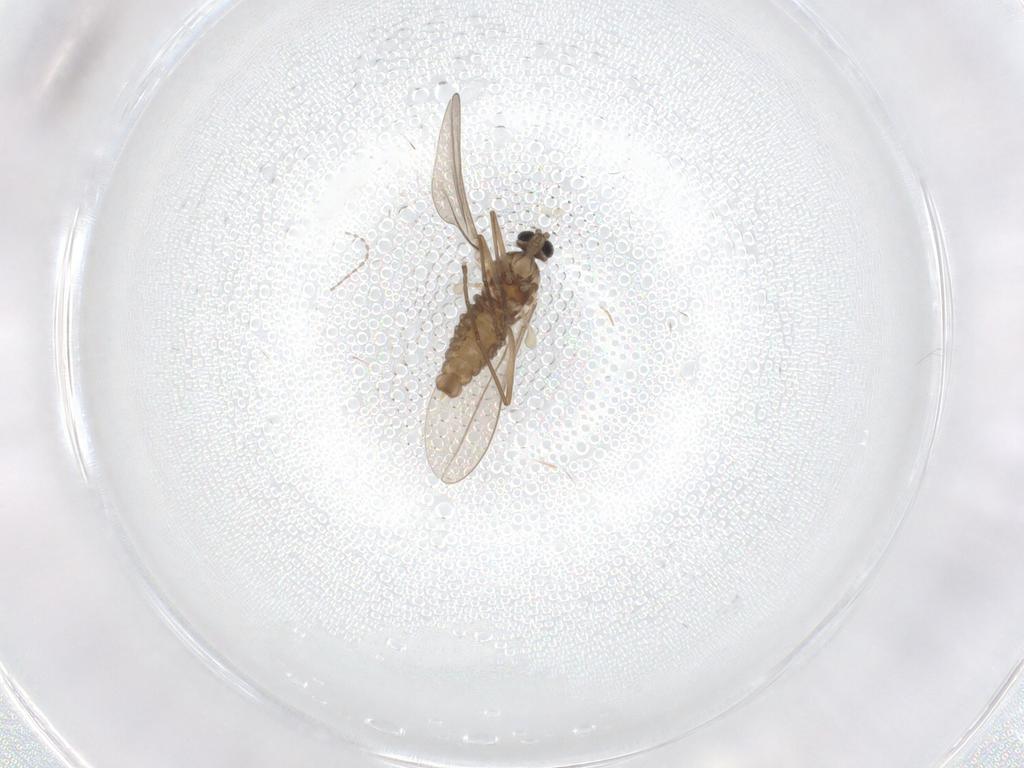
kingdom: Animalia
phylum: Arthropoda
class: Insecta
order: Diptera
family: Cecidomyiidae
